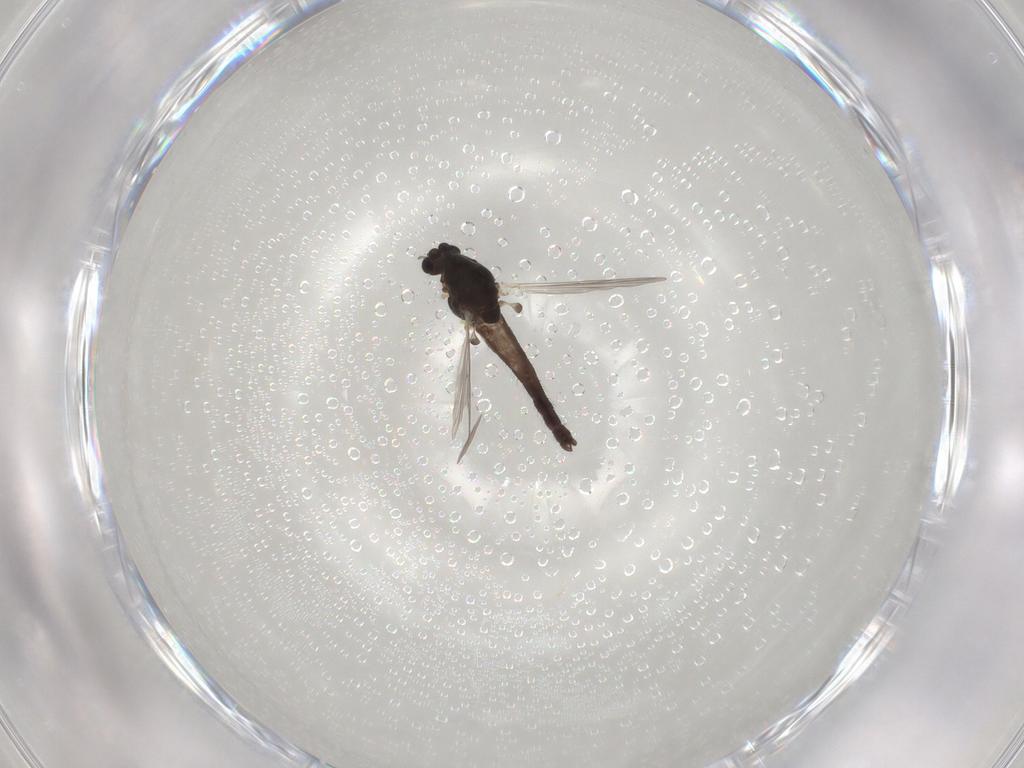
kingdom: Animalia
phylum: Arthropoda
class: Insecta
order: Diptera
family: Chironomidae
